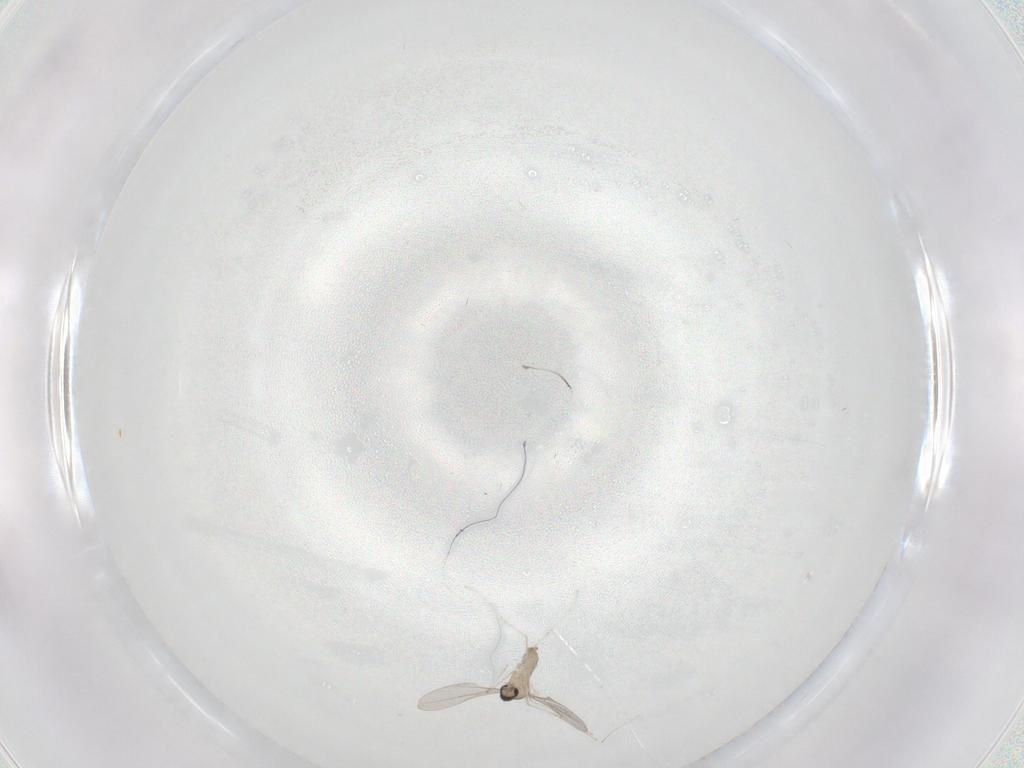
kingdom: Animalia
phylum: Arthropoda
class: Insecta
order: Diptera
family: Cecidomyiidae
